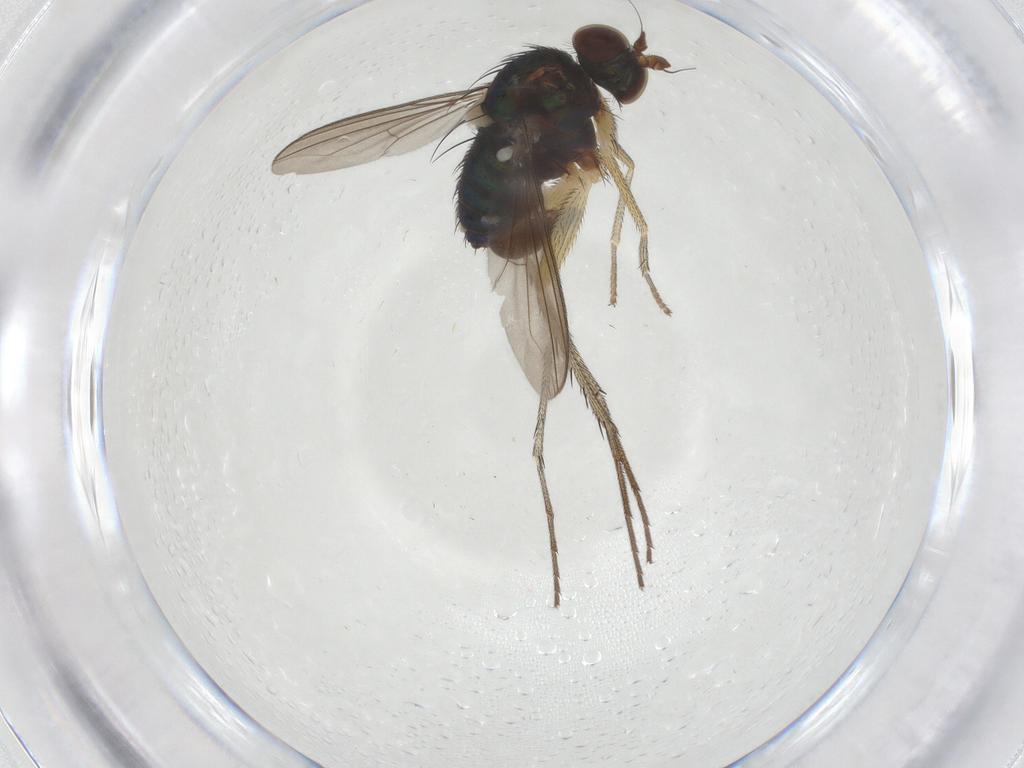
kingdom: Animalia
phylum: Arthropoda
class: Insecta
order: Diptera
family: Dolichopodidae
